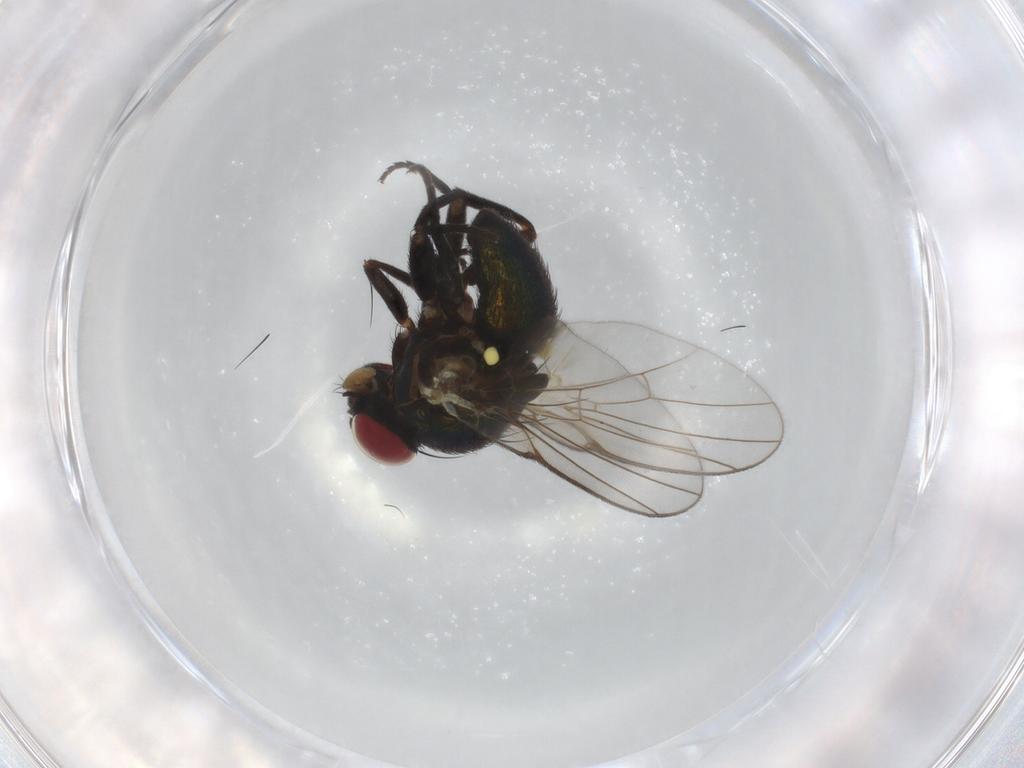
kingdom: Animalia
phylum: Arthropoda
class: Insecta
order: Diptera
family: Agromyzidae
